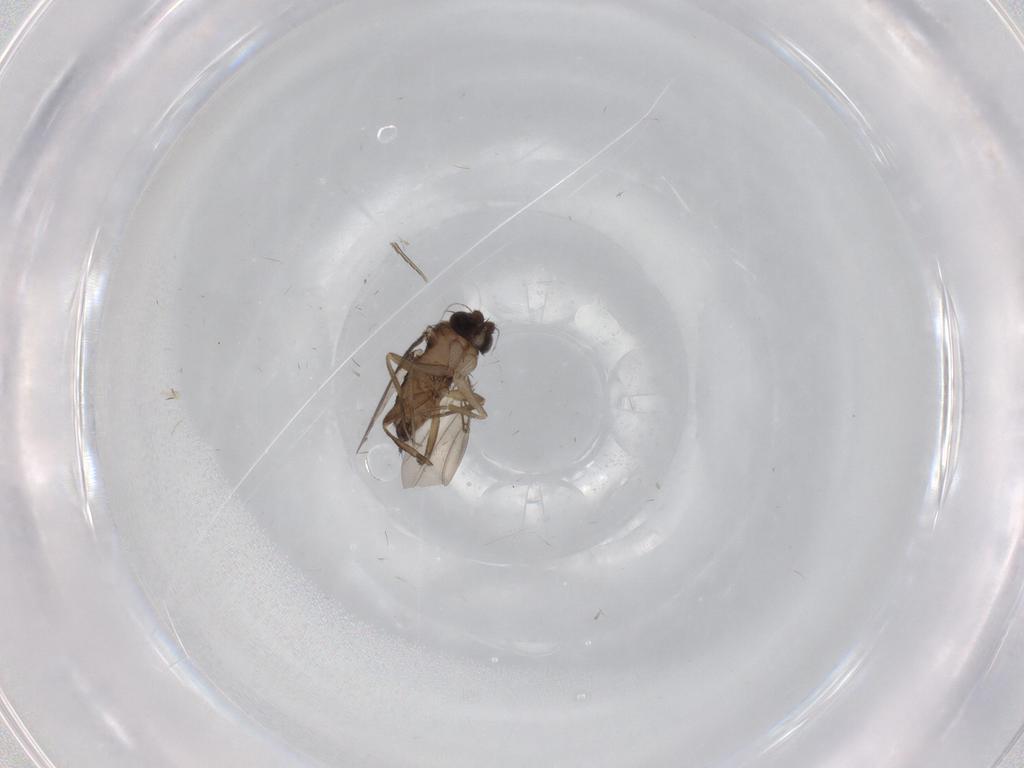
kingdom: Animalia
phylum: Arthropoda
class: Insecta
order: Diptera
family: Phoridae
